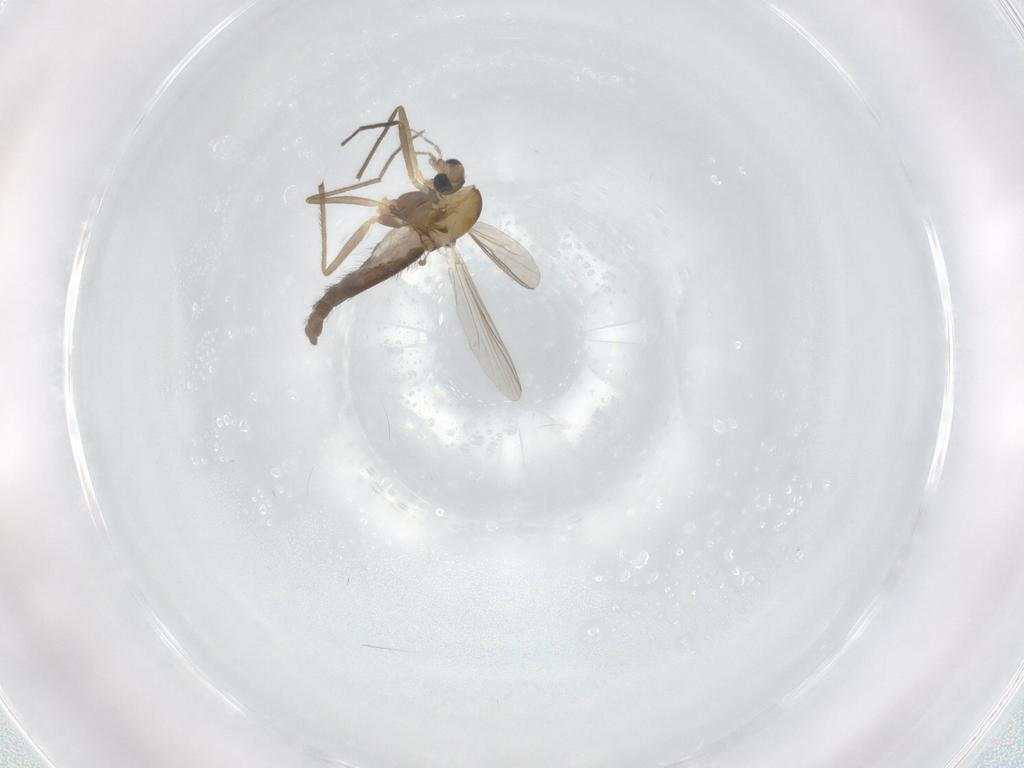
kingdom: Animalia
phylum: Arthropoda
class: Insecta
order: Diptera
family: Chironomidae
